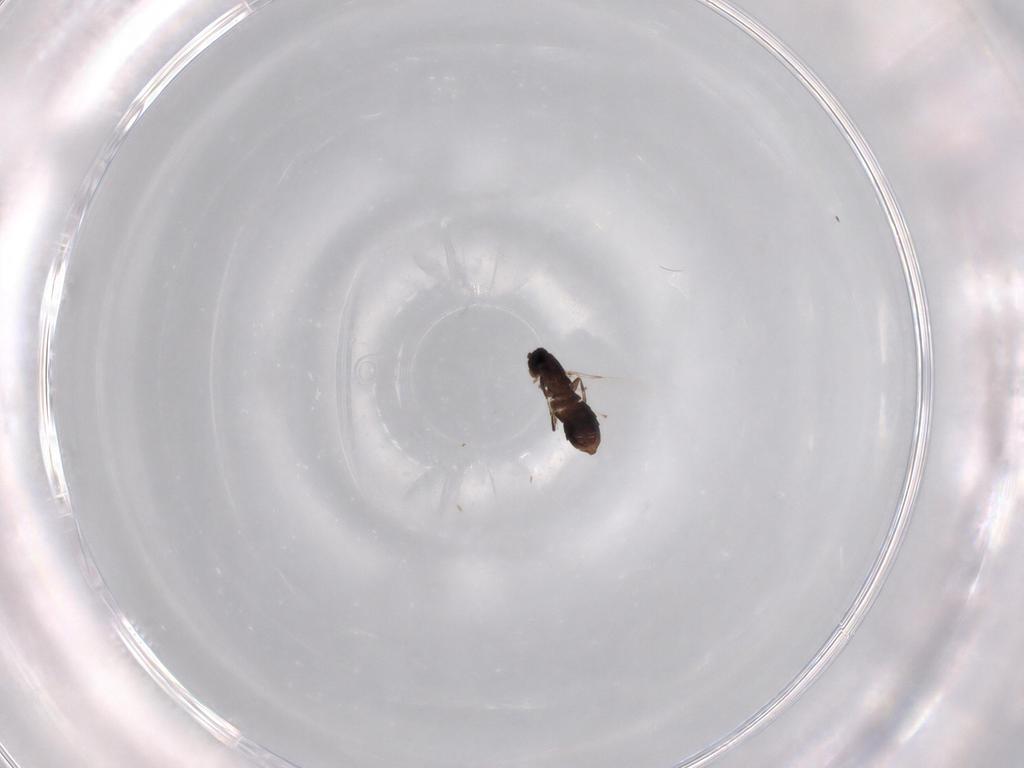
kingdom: Animalia
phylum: Arthropoda
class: Insecta
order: Diptera
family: Scatopsidae
